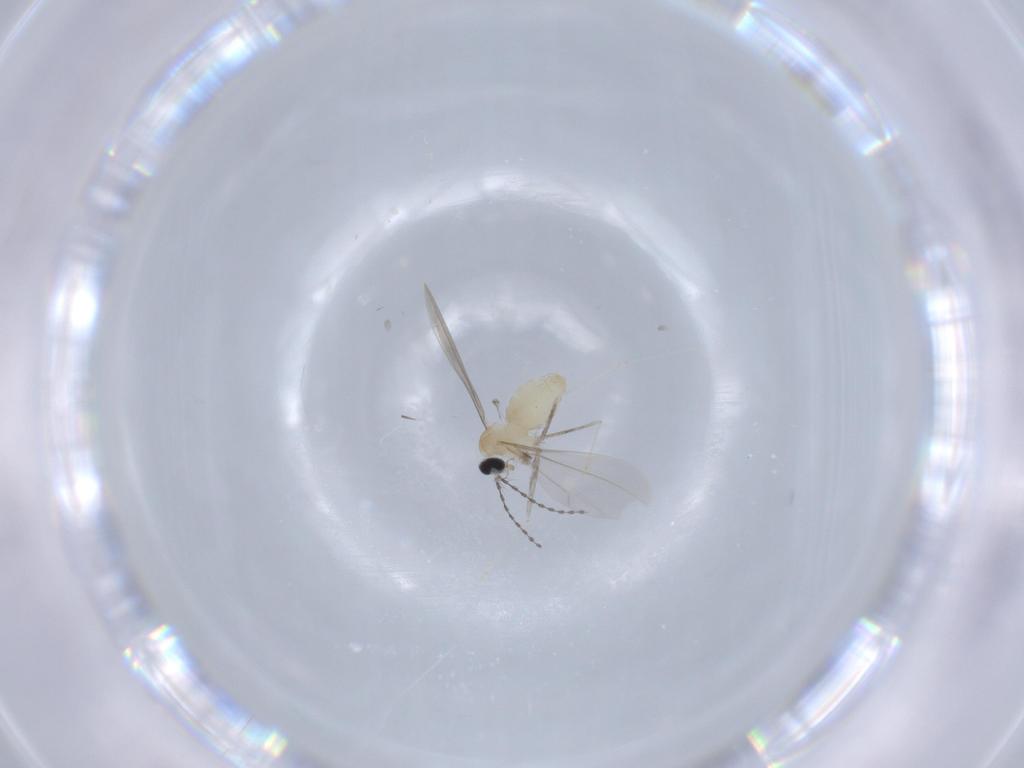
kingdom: Animalia
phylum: Arthropoda
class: Insecta
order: Diptera
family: Cecidomyiidae
